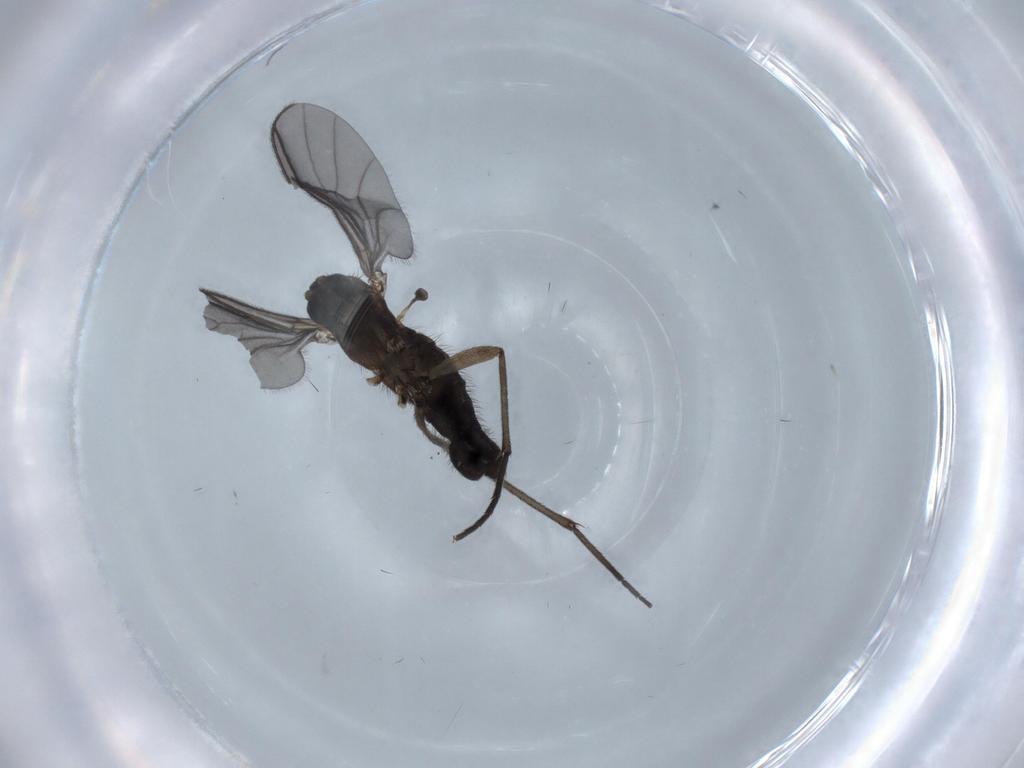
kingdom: Animalia
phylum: Arthropoda
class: Insecta
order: Diptera
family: Sciaridae
